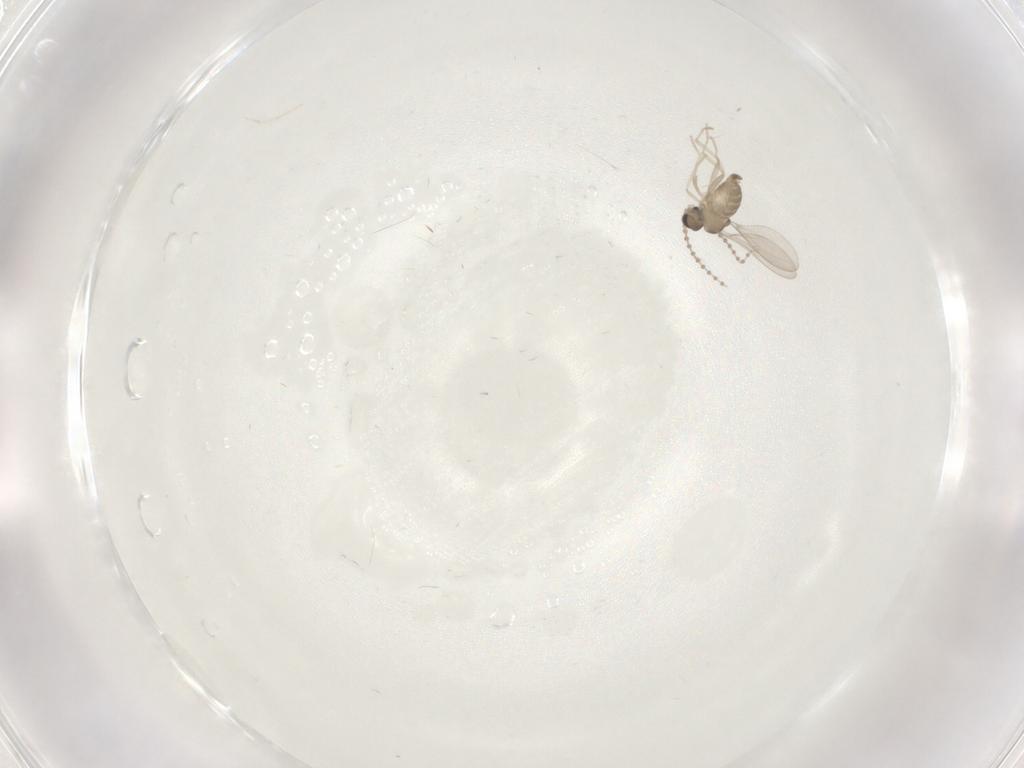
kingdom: Animalia
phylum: Arthropoda
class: Insecta
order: Diptera
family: Cecidomyiidae
